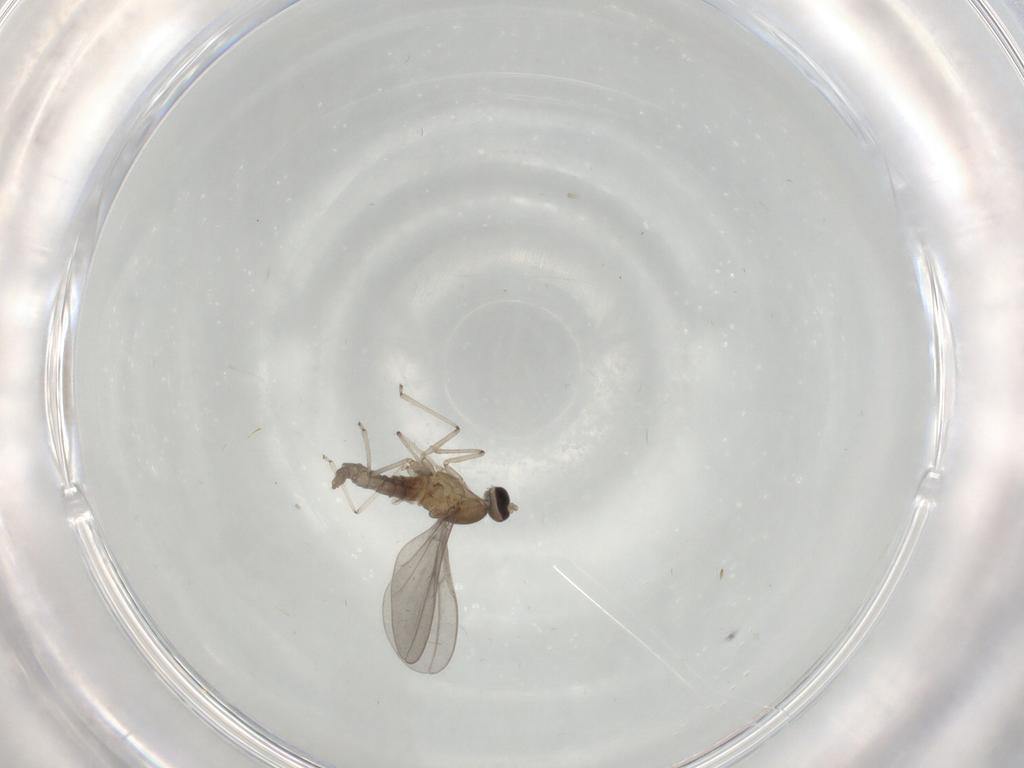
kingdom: Animalia
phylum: Arthropoda
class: Insecta
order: Diptera
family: Cecidomyiidae
